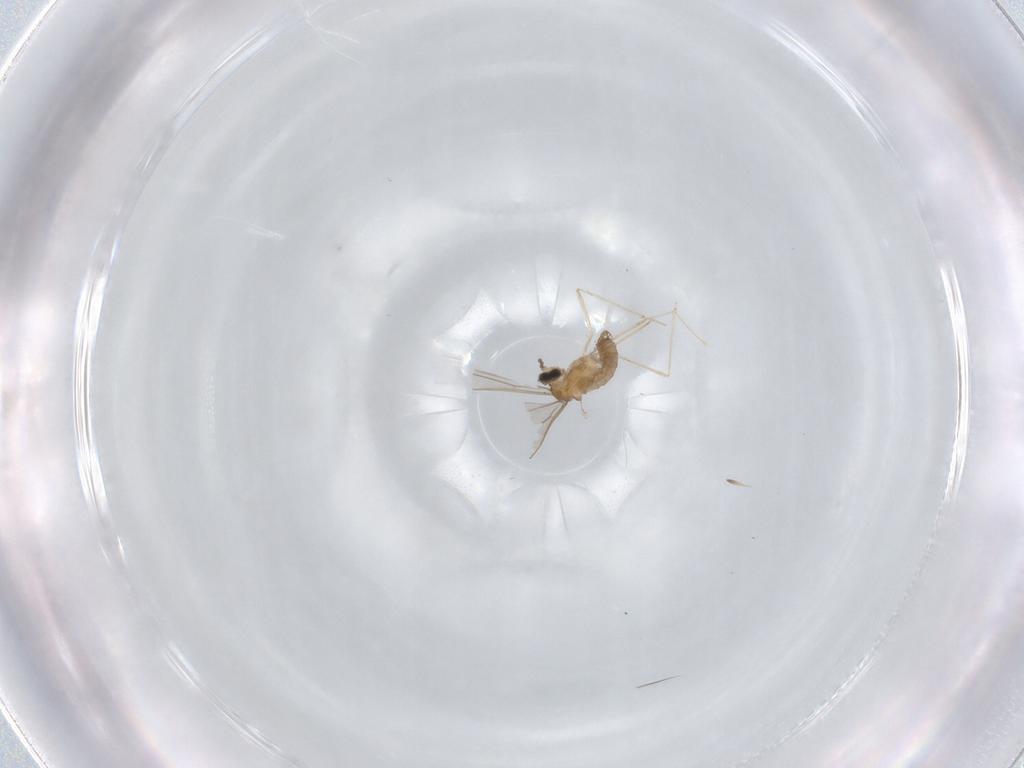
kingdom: Animalia
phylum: Arthropoda
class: Insecta
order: Diptera
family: Cecidomyiidae
